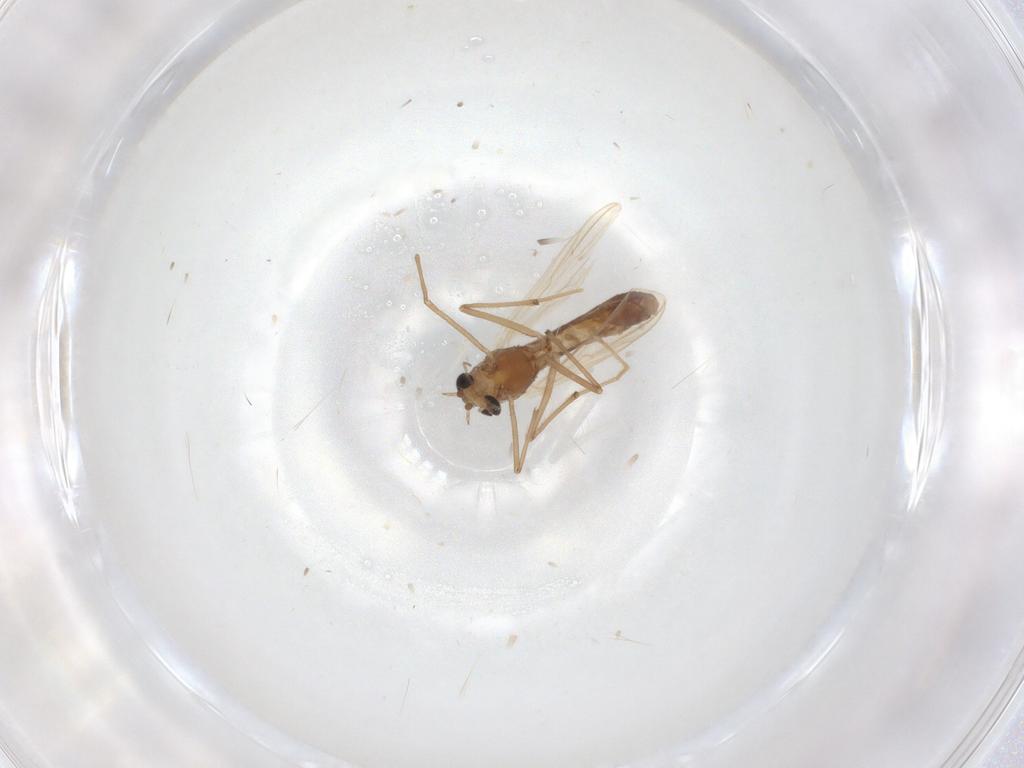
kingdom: Animalia
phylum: Arthropoda
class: Insecta
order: Diptera
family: Chironomidae
